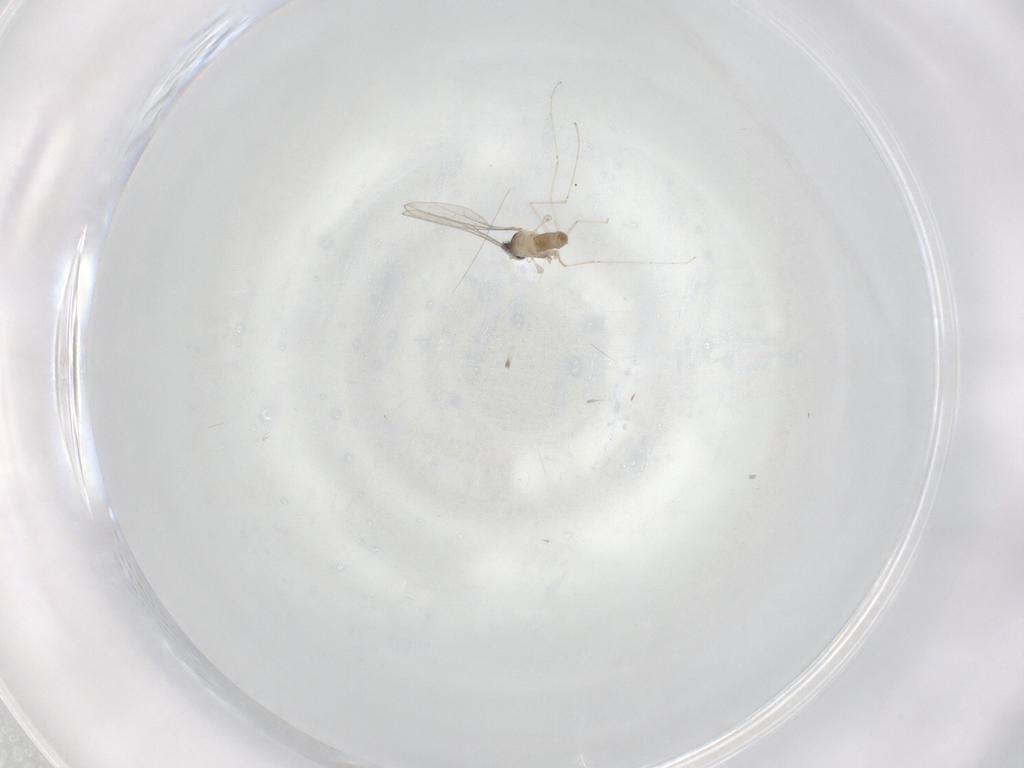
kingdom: Animalia
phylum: Arthropoda
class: Insecta
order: Diptera
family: Cecidomyiidae
